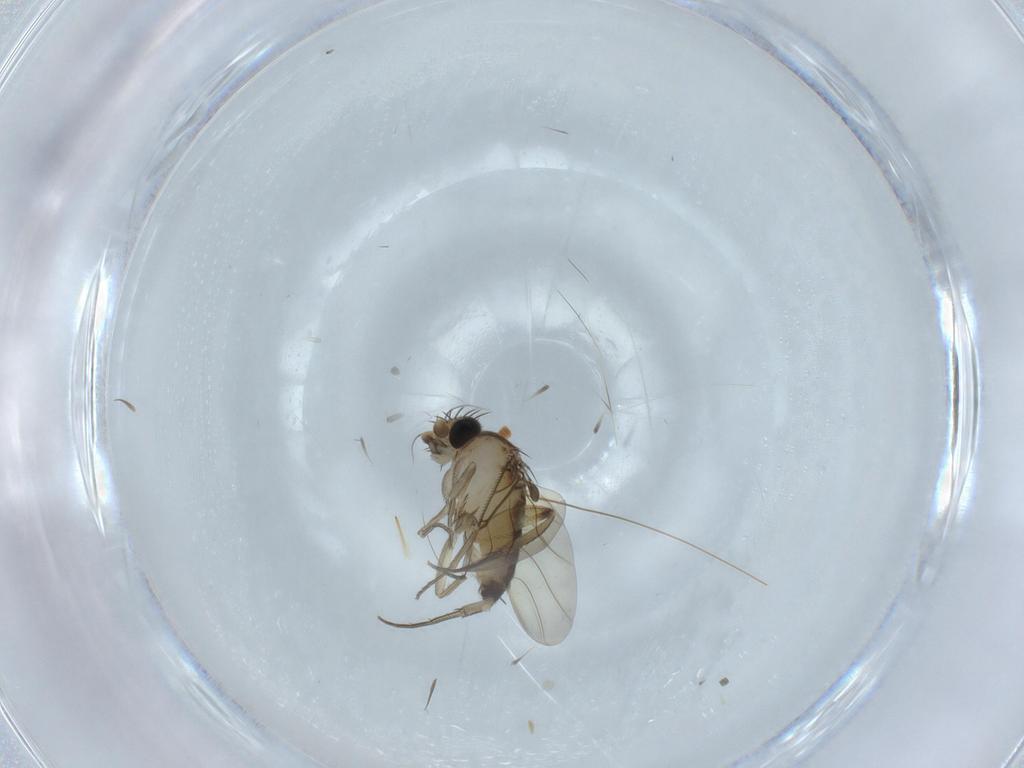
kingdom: Animalia
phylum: Arthropoda
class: Insecta
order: Diptera
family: Phoridae
